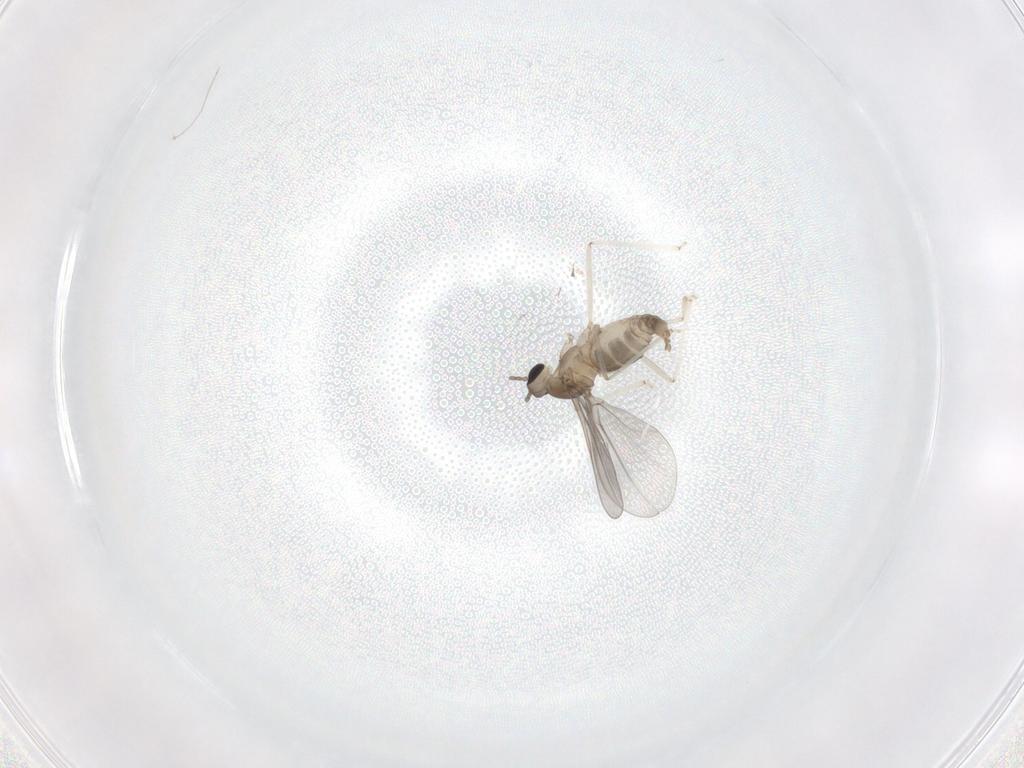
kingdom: Animalia
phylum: Arthropoda
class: Insecta
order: Diptera
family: Cecidomyiidae
